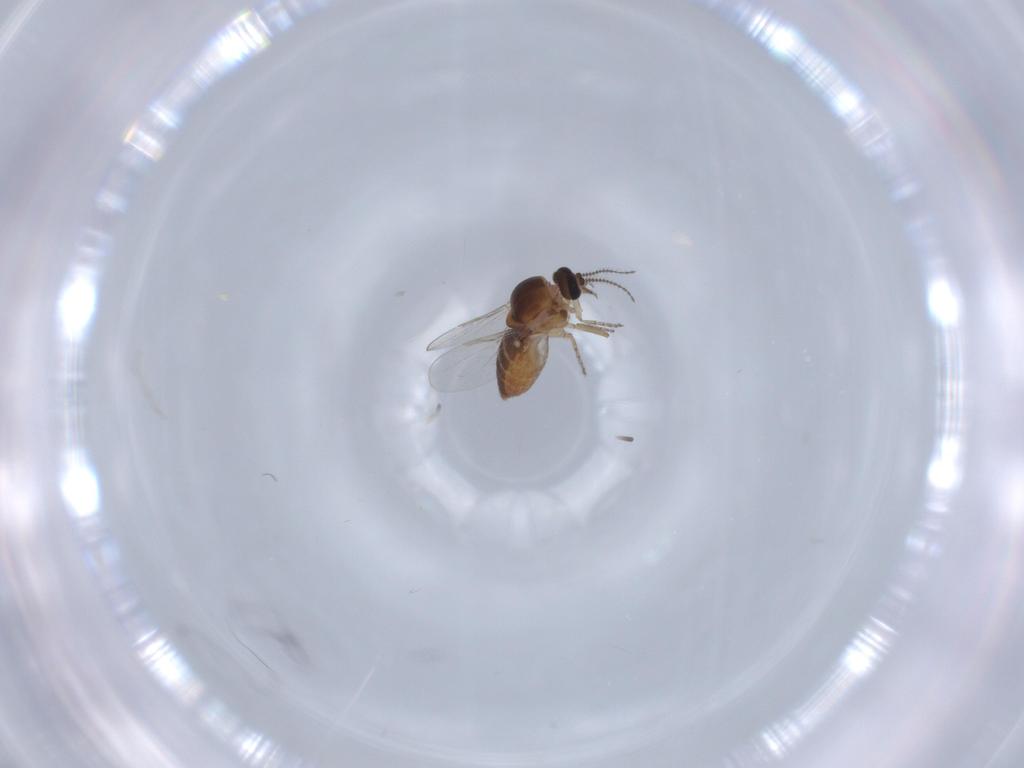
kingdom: Animalia
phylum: Arthropoda
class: Insecta
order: Diptera
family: Ceratopogonidae
